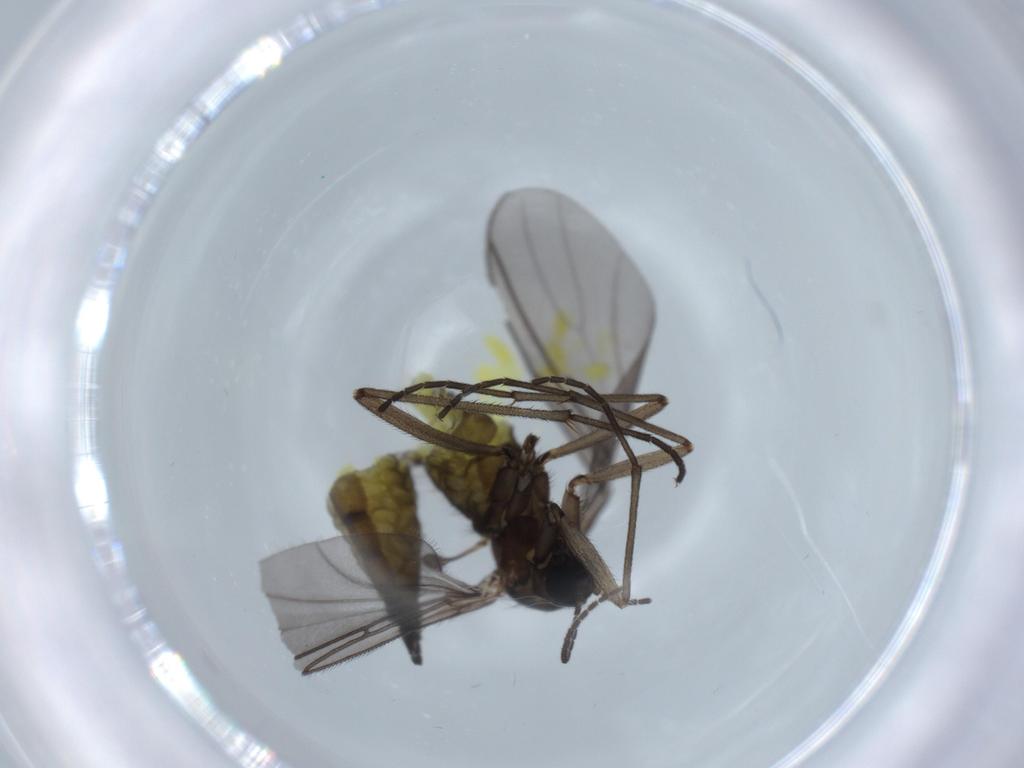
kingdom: Animalia
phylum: Arthropoda
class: Insecta
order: Diptera
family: Sciaridae
